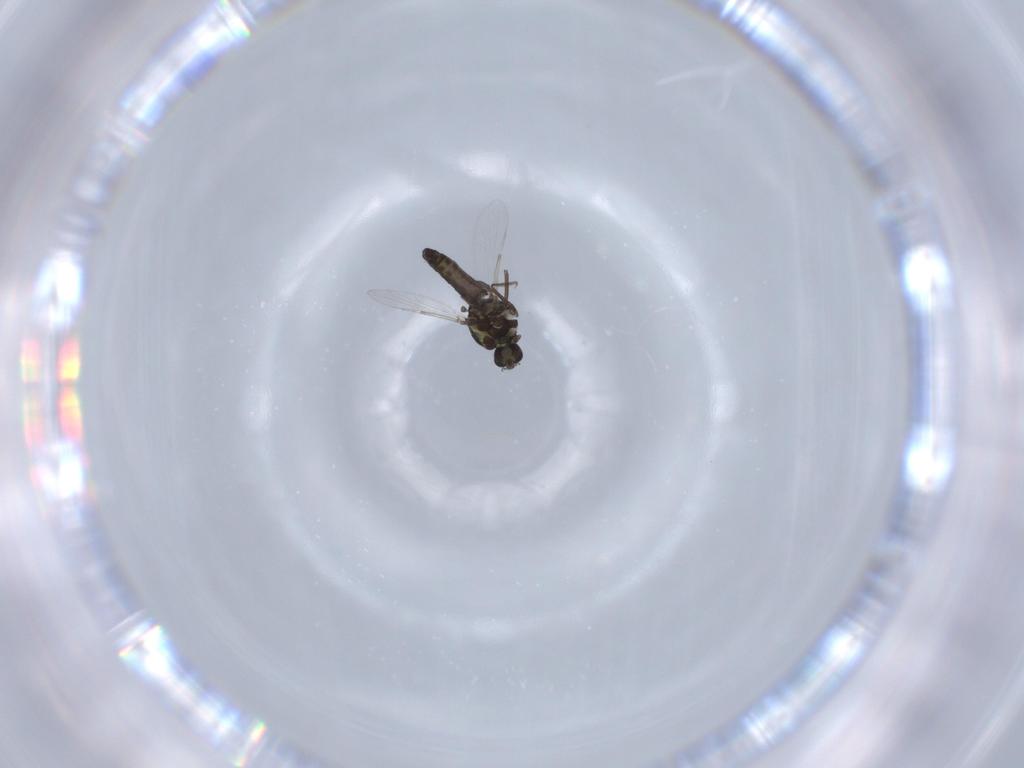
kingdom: Animalia
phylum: Arthropoda
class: Insecta
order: Diptera
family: Ceratopogonidae
